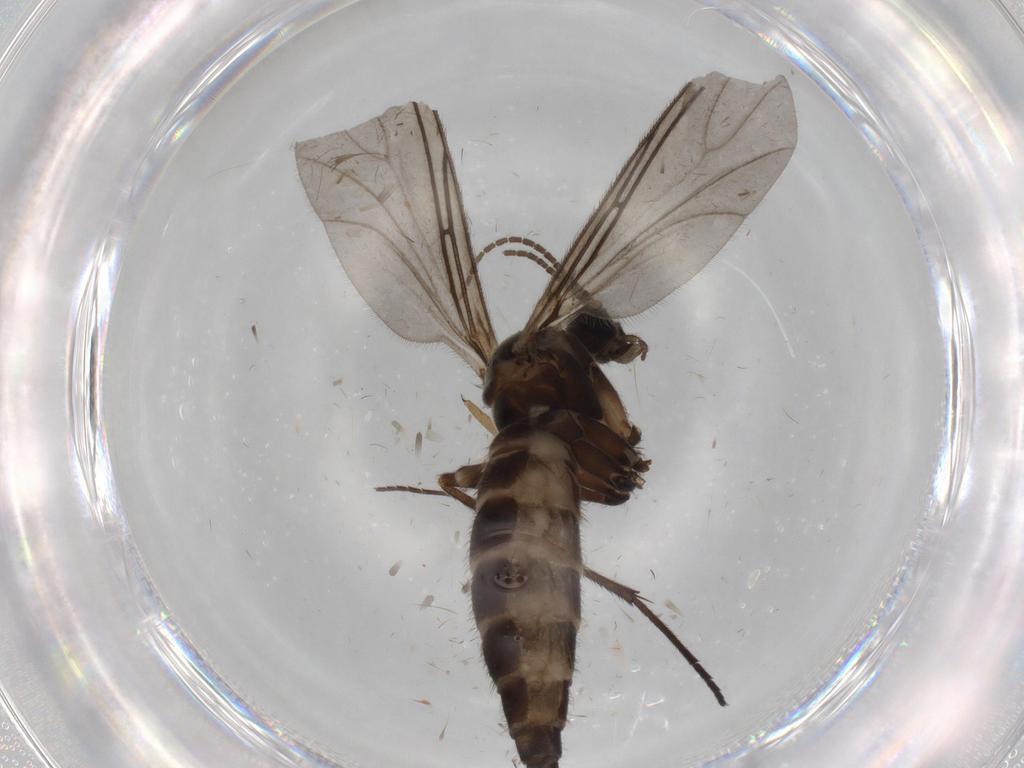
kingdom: Animalia
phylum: Arthropoda
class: Insecta
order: Diptera
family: Sciaridae
